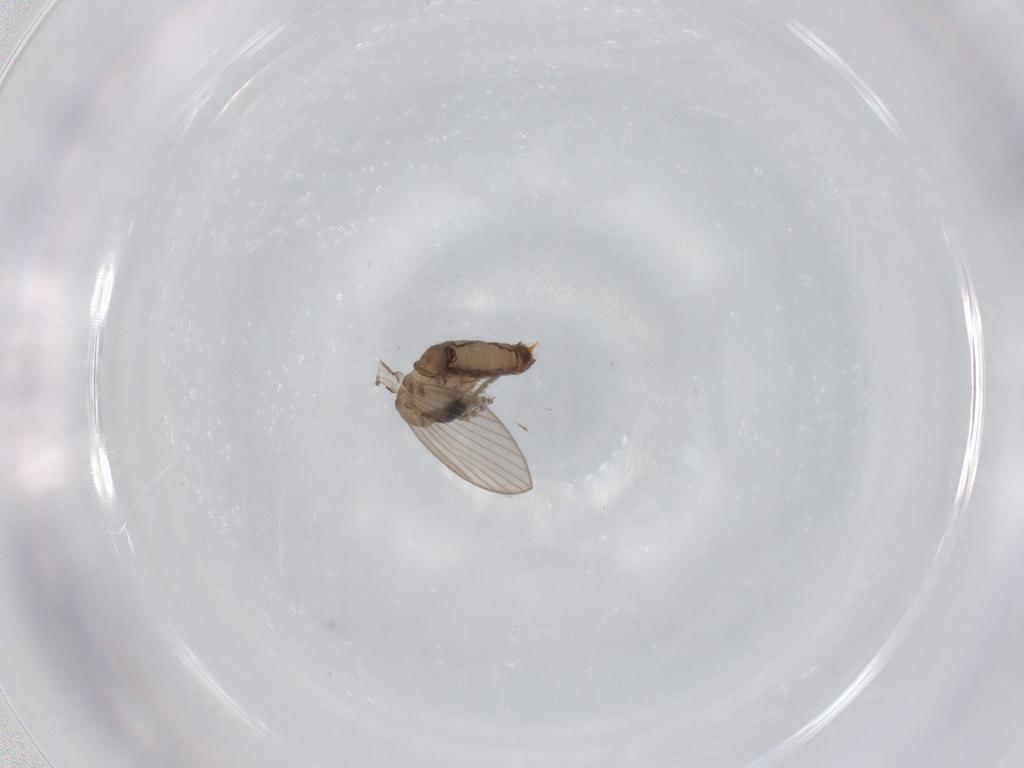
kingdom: Animalia
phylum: Arthropoda
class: Insecta
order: Diptera
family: Psychodidae
